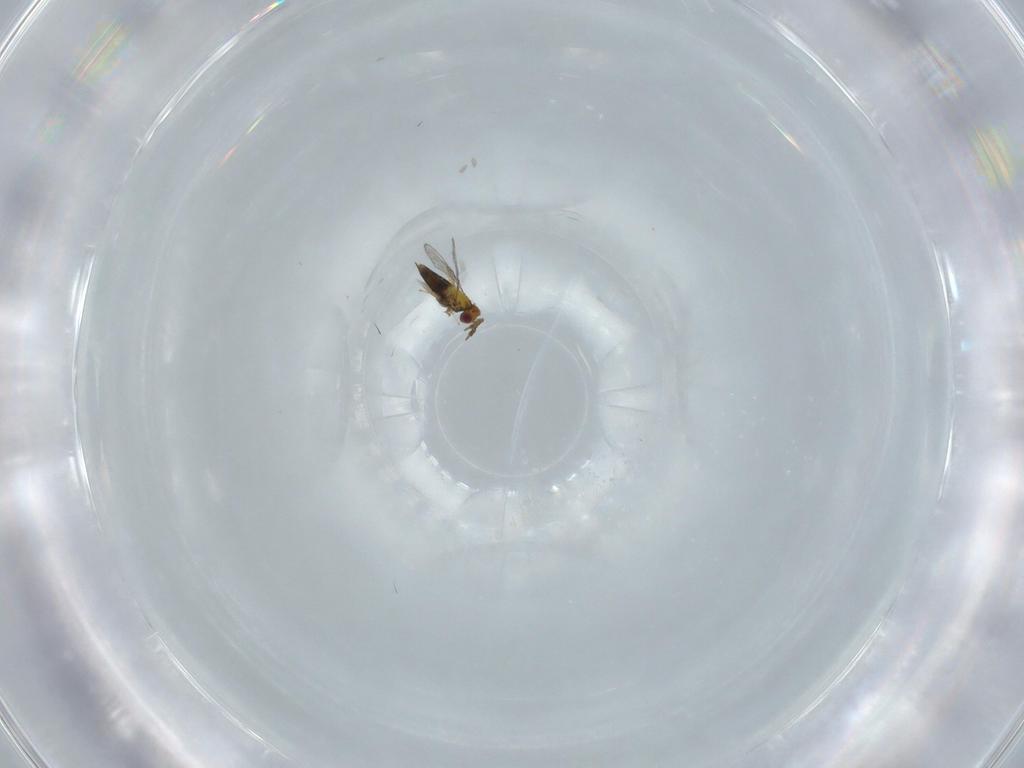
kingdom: Animalia
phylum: Arthropoda
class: Insecta
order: Hymenoptera
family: Trichogrammatidae
